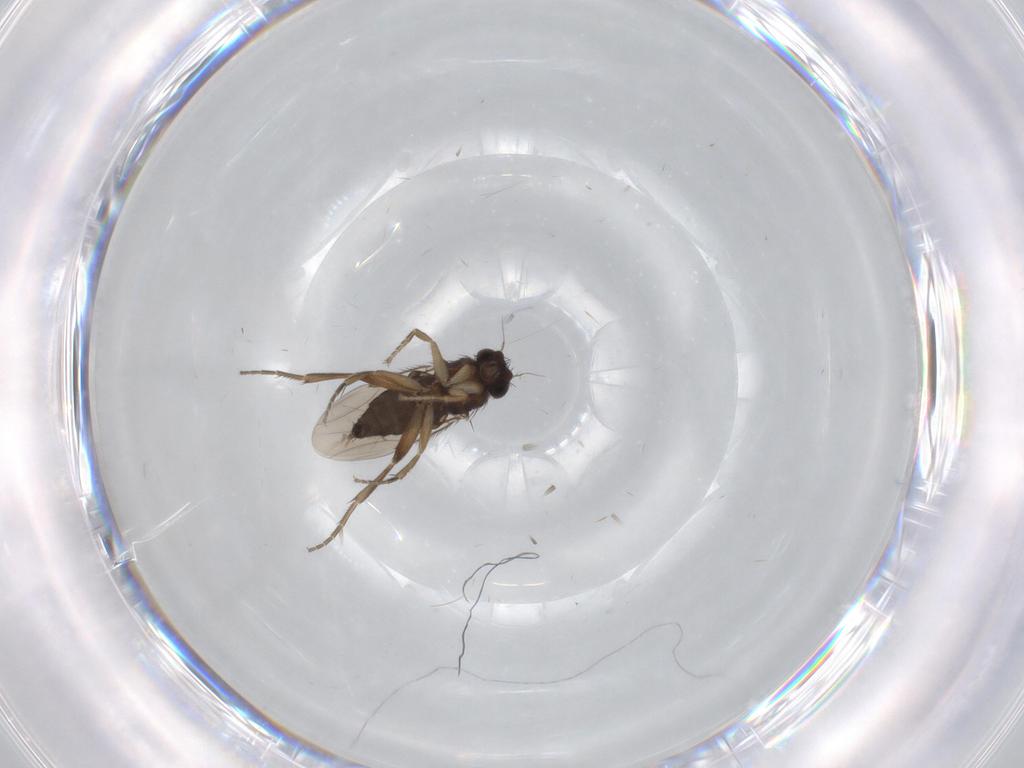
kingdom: Animalia
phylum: Arthropoda
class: Insecta
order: Diptera
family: Phoridae
